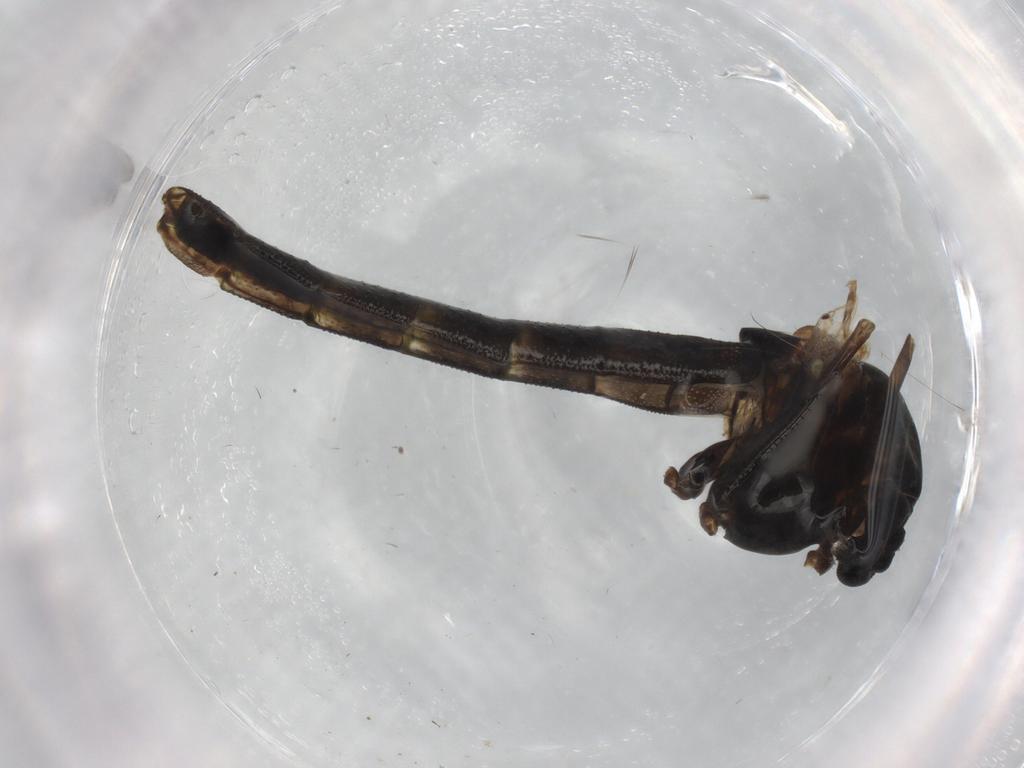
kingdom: Animalia
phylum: Arthropoda
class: Insecta
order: Diptera
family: Chironomidae
